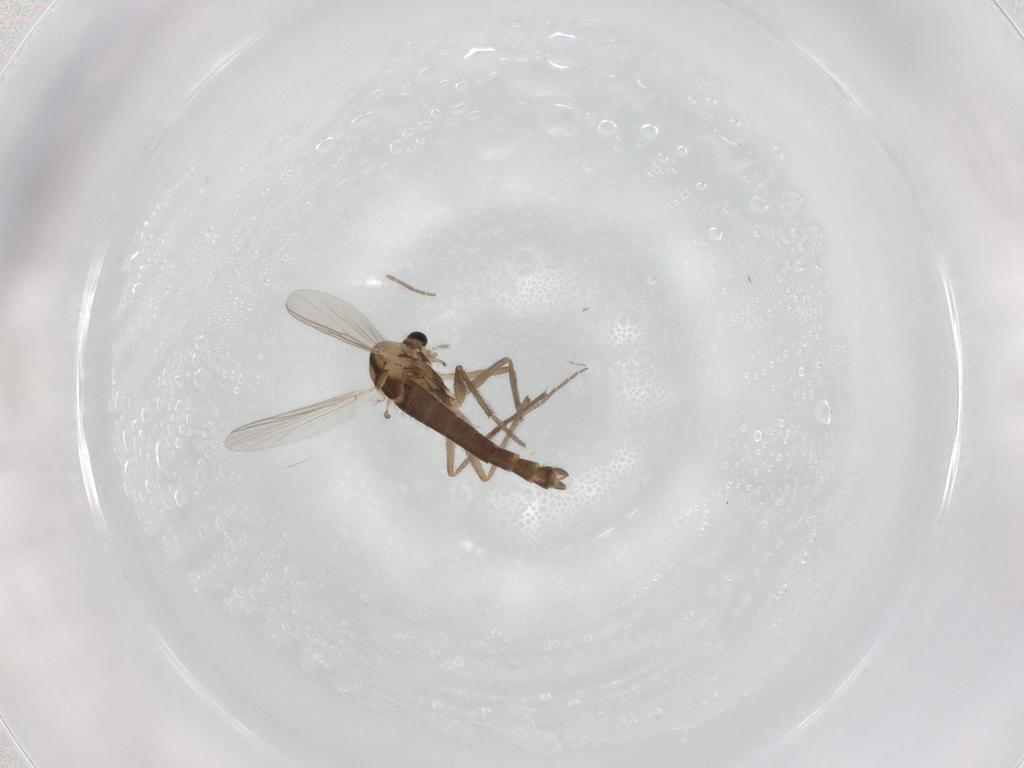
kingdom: Animalia
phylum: Arthropoda
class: Insecta
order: Diptera
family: Chironomidae
